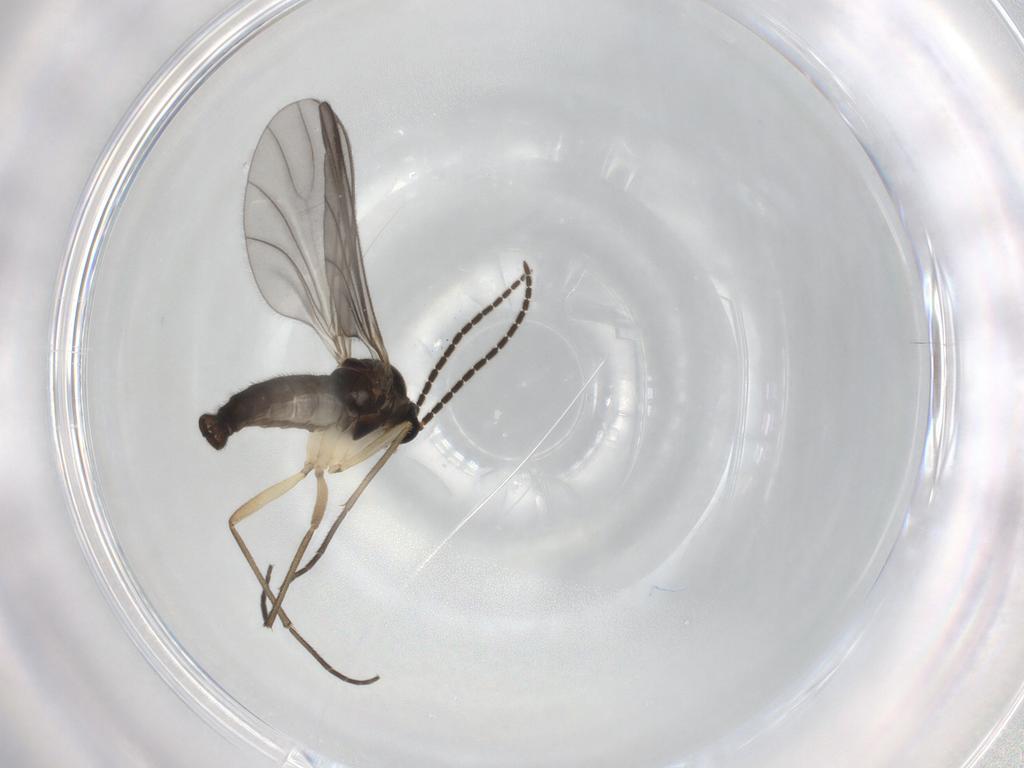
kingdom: Animalia
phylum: Arthropoda
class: Insecta
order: Diptera
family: Sciaridae
